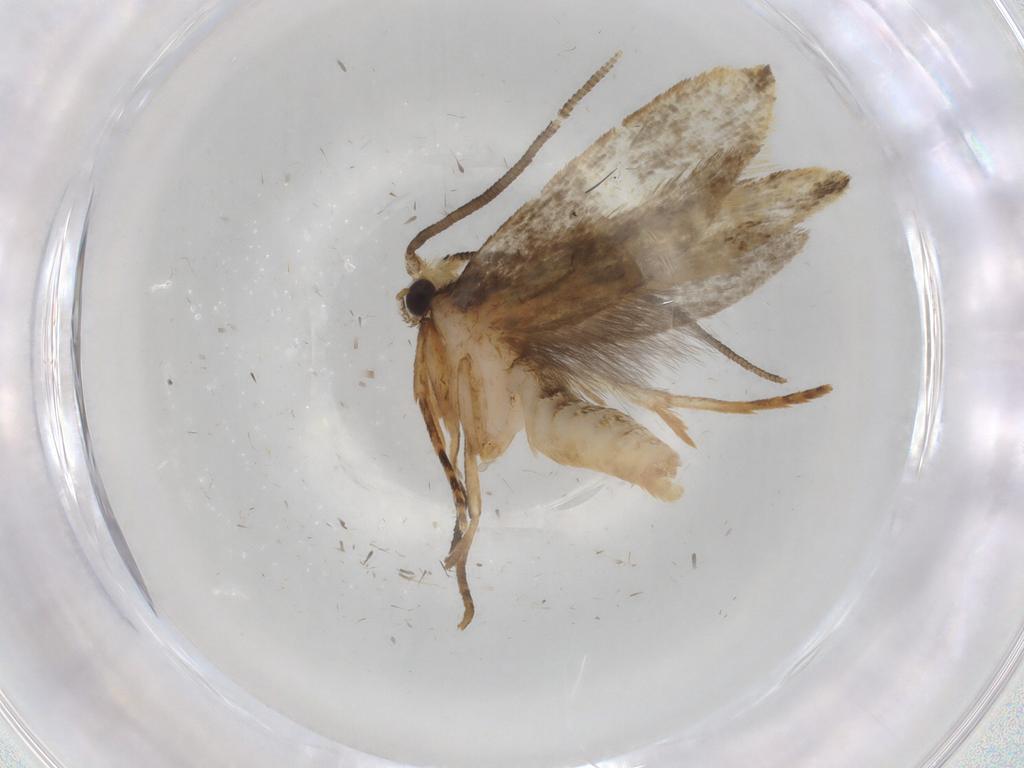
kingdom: Animalia
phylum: Arthropoda
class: Insecta
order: Lepidoptera
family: Tineidae
